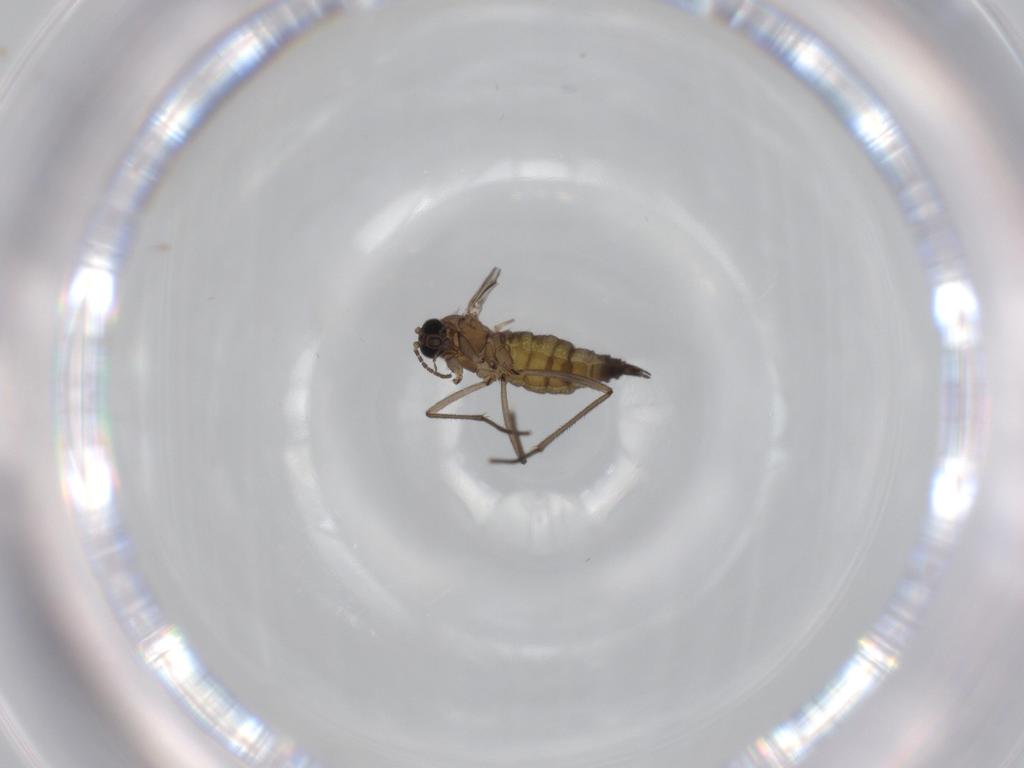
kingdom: Animalia
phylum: Arthropoda
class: Insecta
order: Diptera
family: Sciaridae
